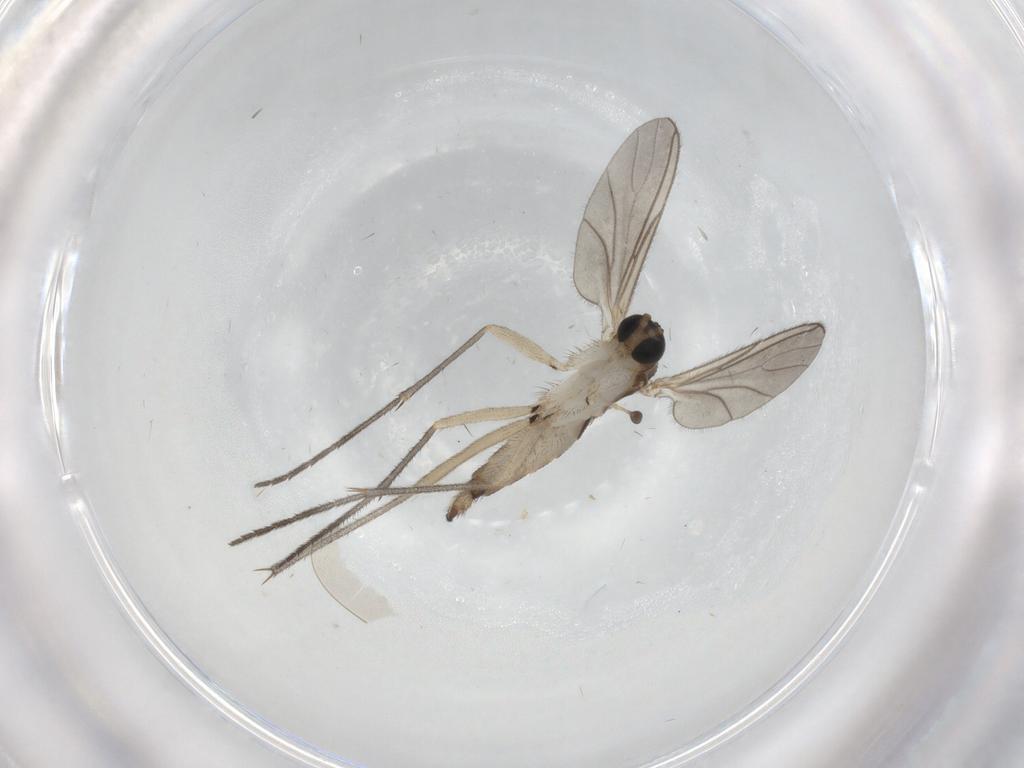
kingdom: Animalia
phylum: Arthropoda
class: Insecta
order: Diptera
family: Sciaridae
